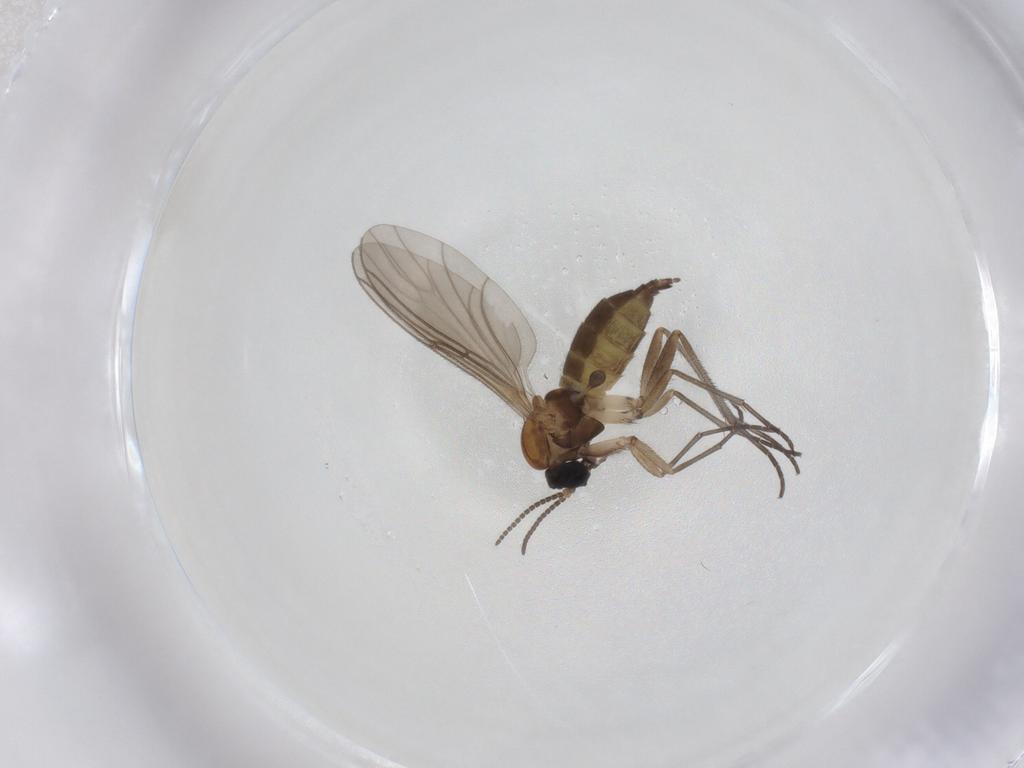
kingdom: Animalia
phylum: Arthropoda
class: Insecta
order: Diptera
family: Sciaridae
